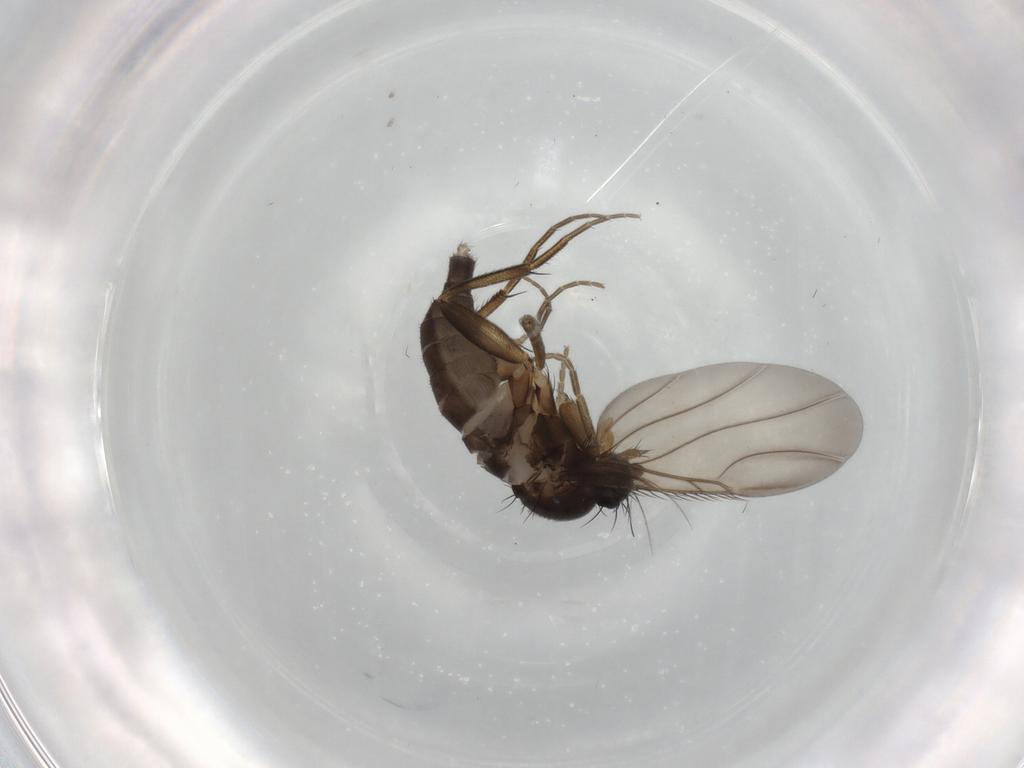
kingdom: Animalia
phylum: Arthropoda
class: Insecta
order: Diptera
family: Phoridae
